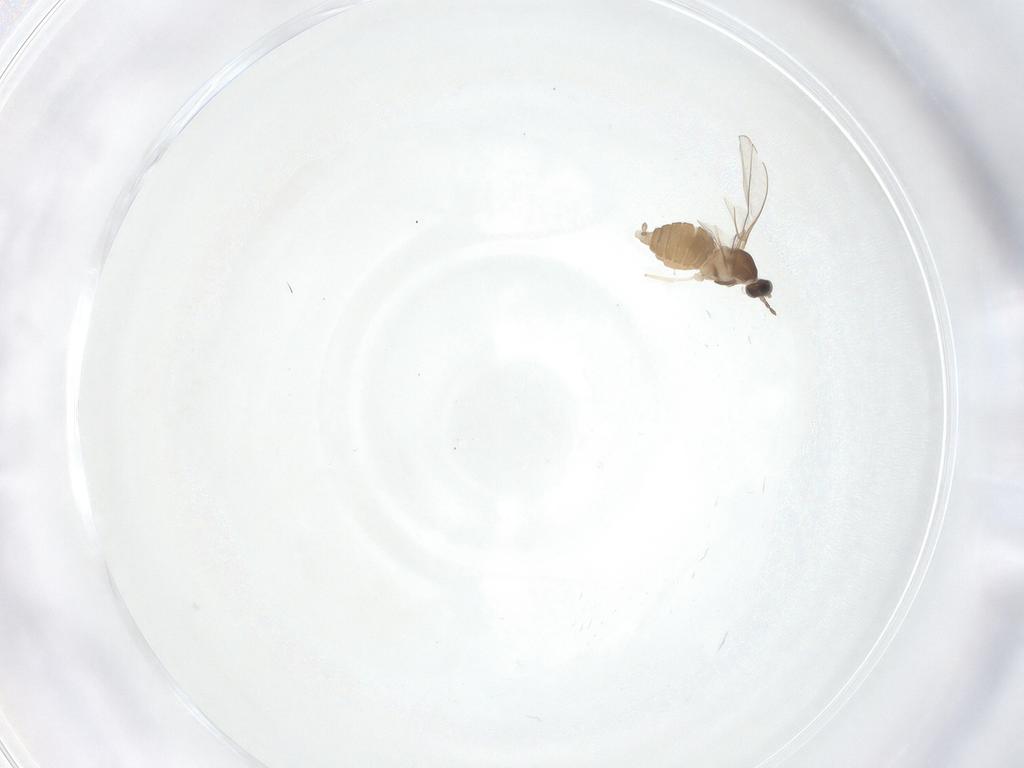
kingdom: Animalia
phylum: Arthropoda
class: Insecta
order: Diptera
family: Cecidomyiidae
